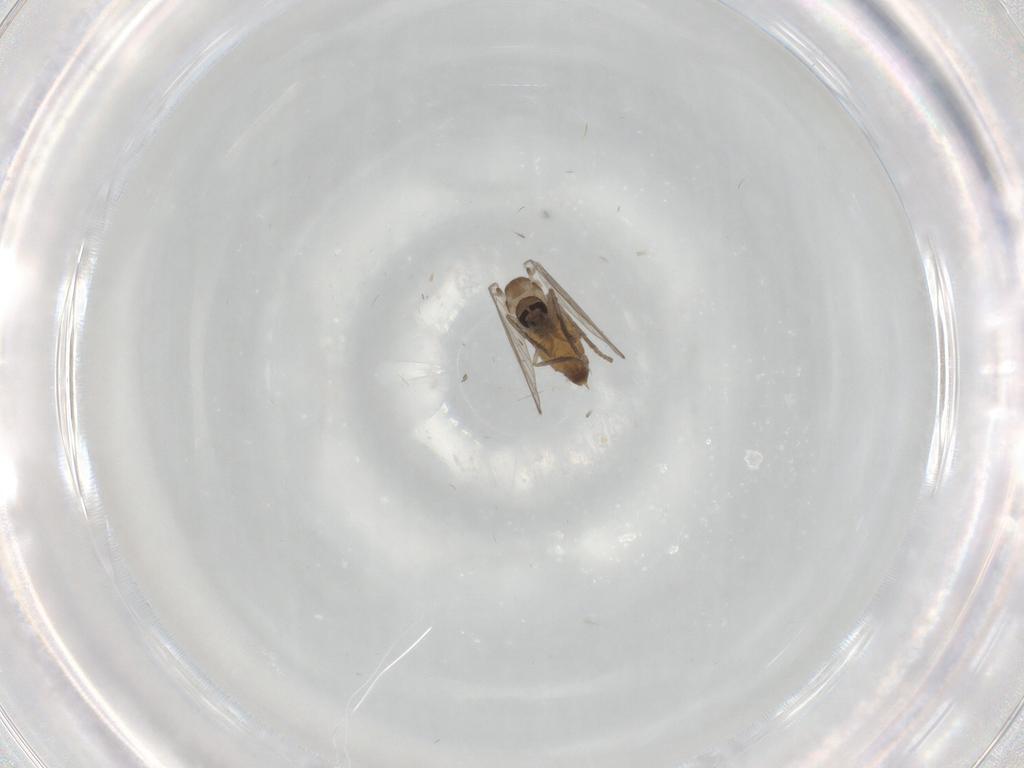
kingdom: Animalia
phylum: Arthropoda
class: Insecta
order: Diptera
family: Psychodidae
